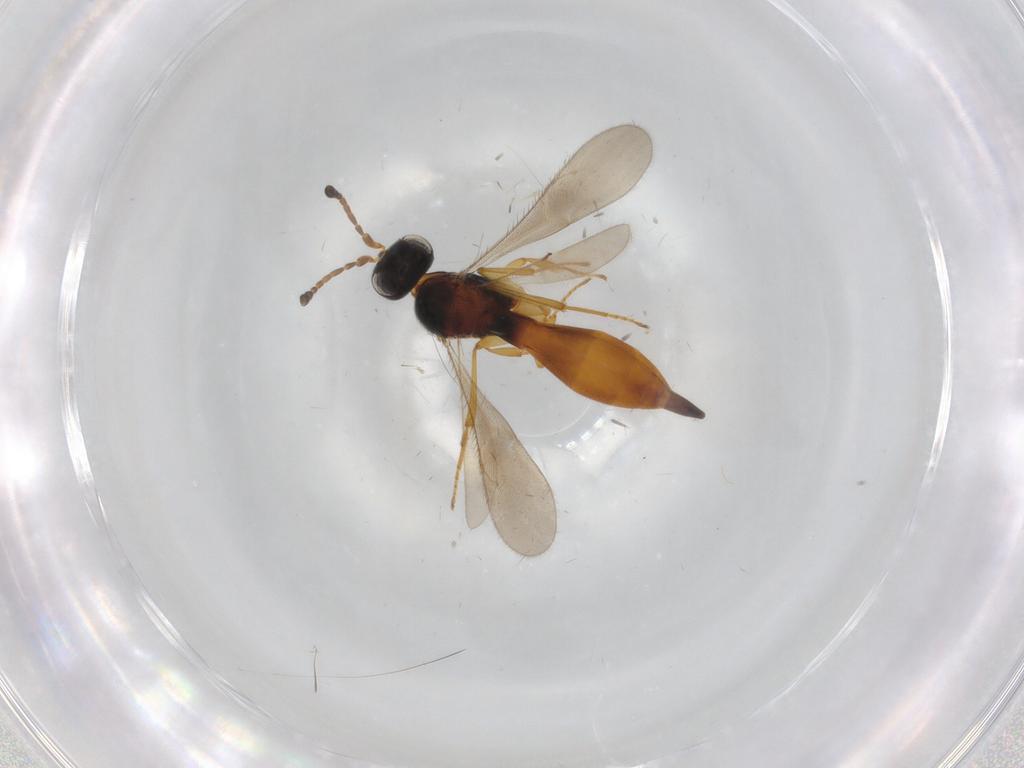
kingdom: Animalia
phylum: Arthropoda
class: Insecta
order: Hymenoptera
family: Scelionidae
